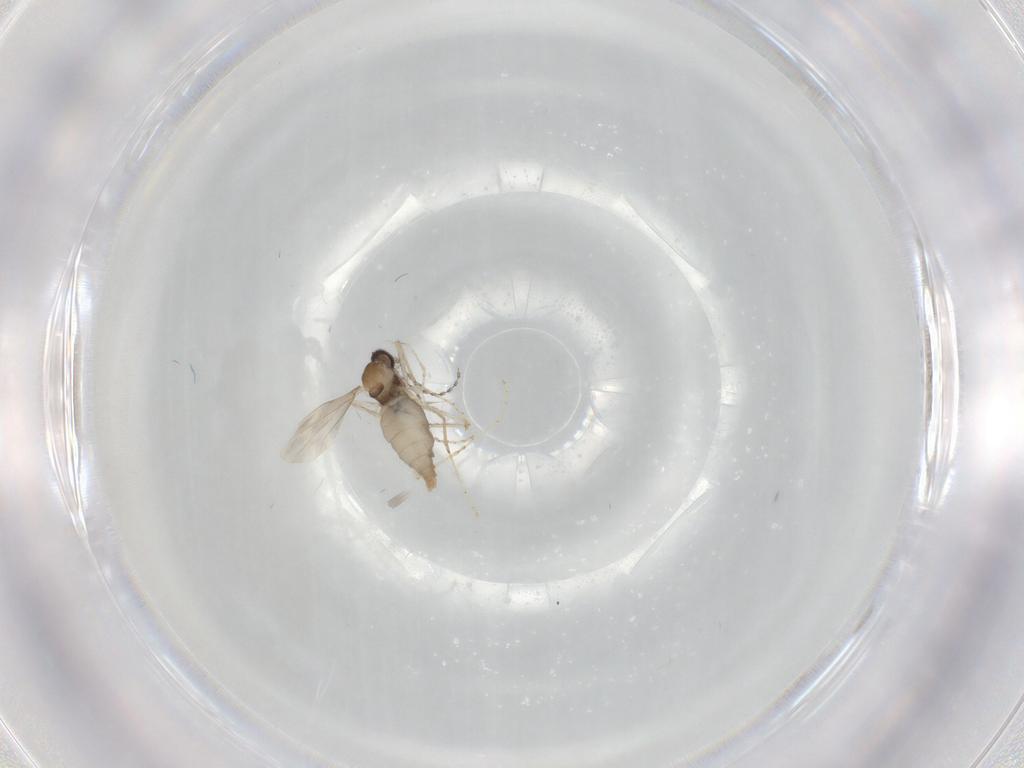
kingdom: Animalia
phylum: Arthropoda
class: Insecta
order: Diptera
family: Cecidomyiidae
